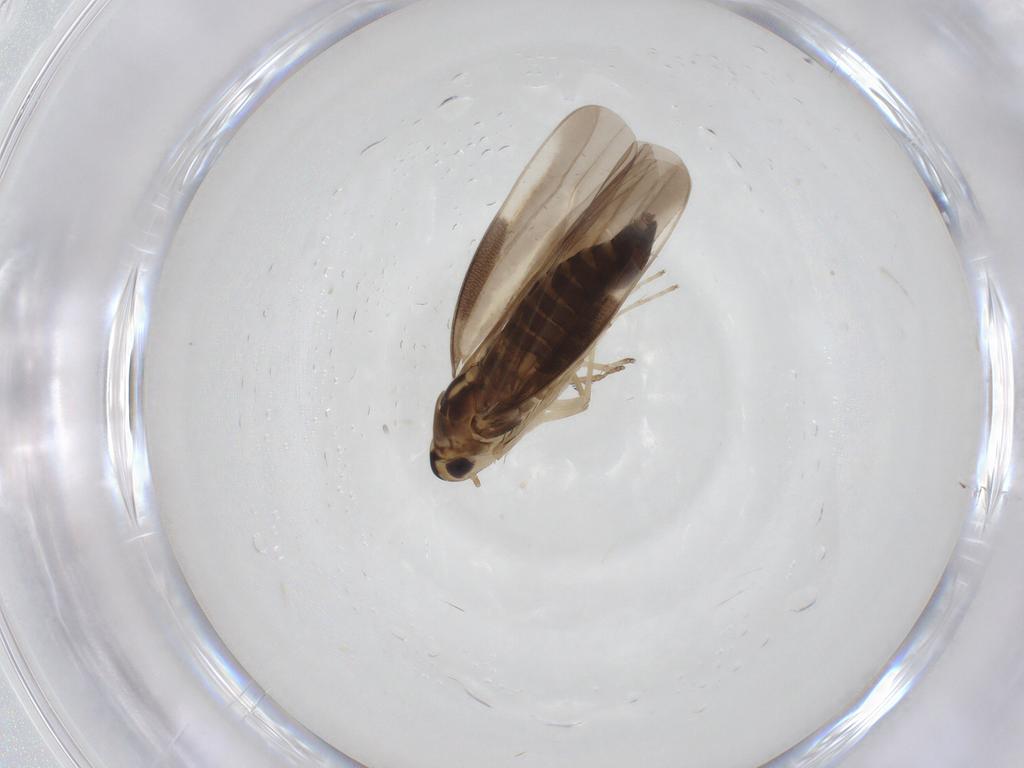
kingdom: Animalia
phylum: Arthropoda
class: Insecta
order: Hemiptera
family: Cicadellidae
